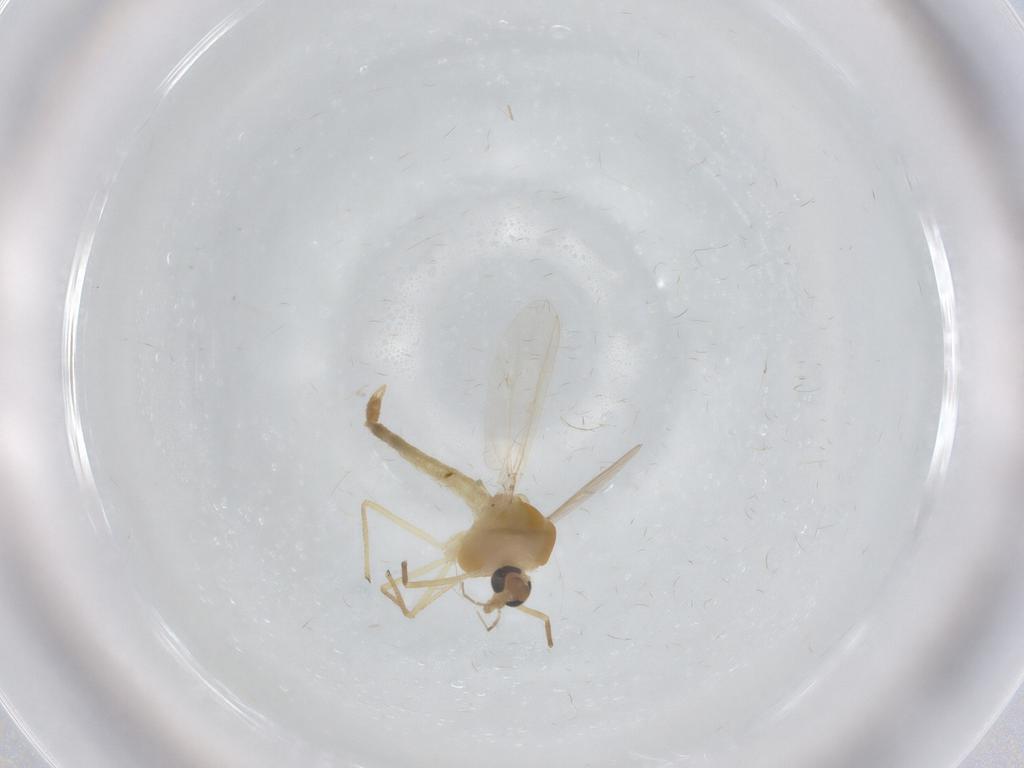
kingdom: Animalia
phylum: Arthropoda
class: Insecta
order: Diptera
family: Chironomidae
